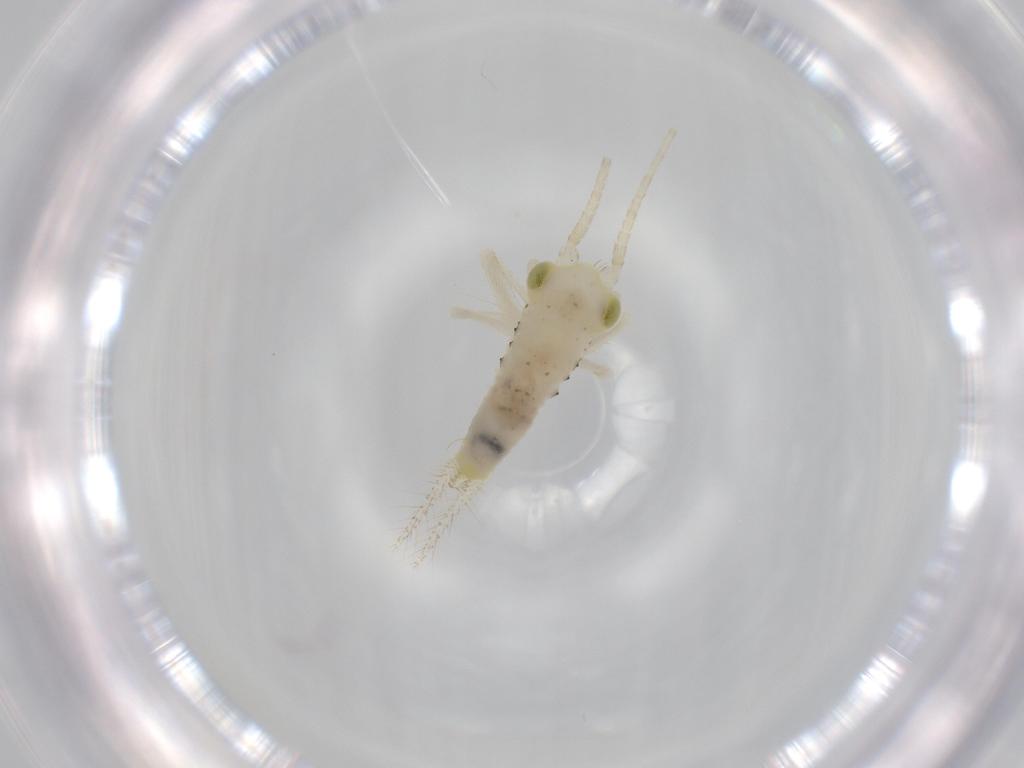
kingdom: Animalia
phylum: Arthropoda
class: Insecta
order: Orthoptera
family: Trigonidiidae
